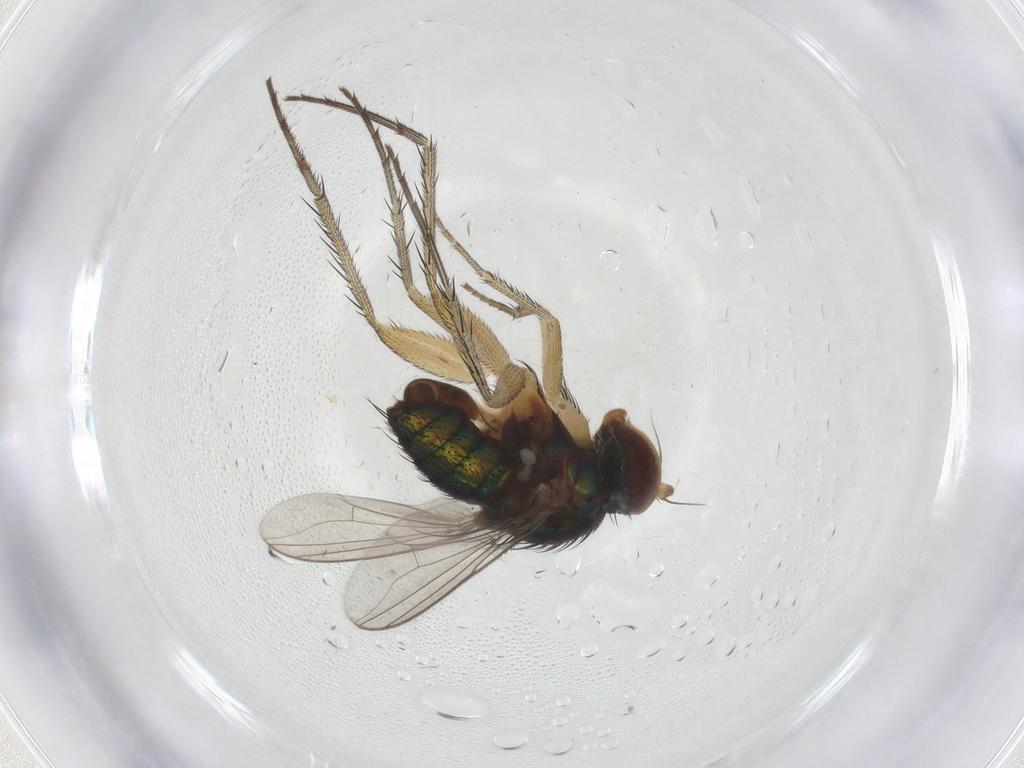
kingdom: Animalia
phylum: Arthropoda
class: Insecta
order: Diptera
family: Dolichopodidae
